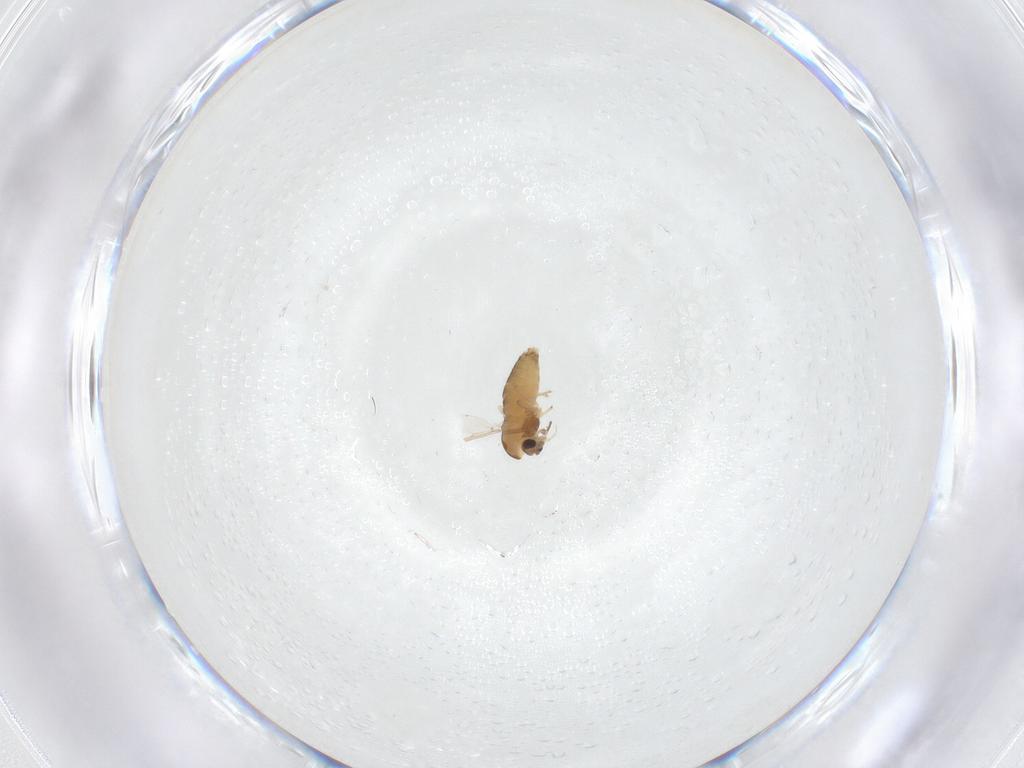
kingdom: Animalia
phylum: Arthropoda
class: Insecta
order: Diptera
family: Chironomidae
